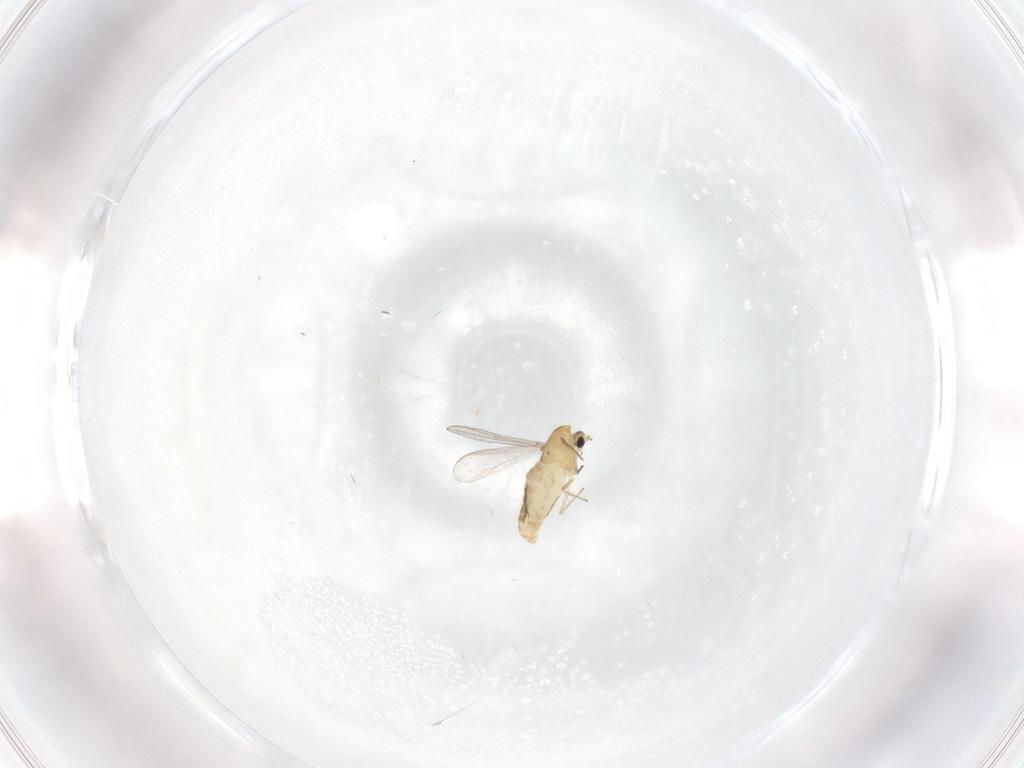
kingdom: Animalia
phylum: Arthropoda
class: Insecta
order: Diptera
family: Chironomidae
